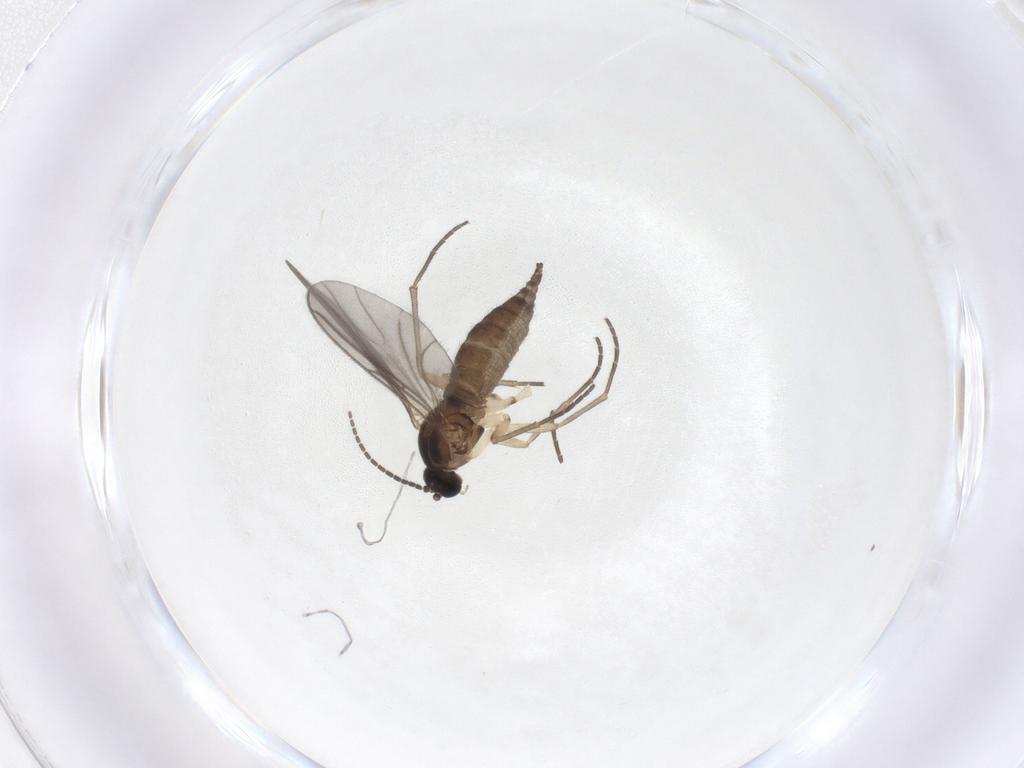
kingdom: Animalia
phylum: Arthropoda
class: Insecta
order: Diptera
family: Sciaridae
